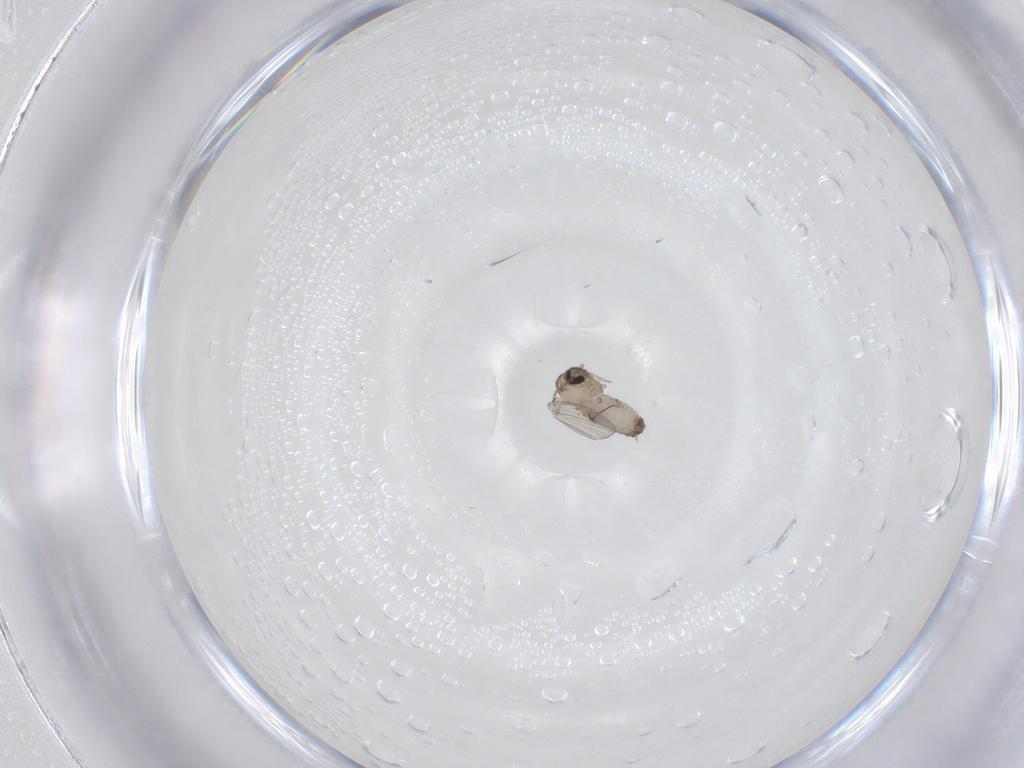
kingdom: Animalia
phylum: Arthropoda
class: Insecta
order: Diptera
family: Psychodidae
